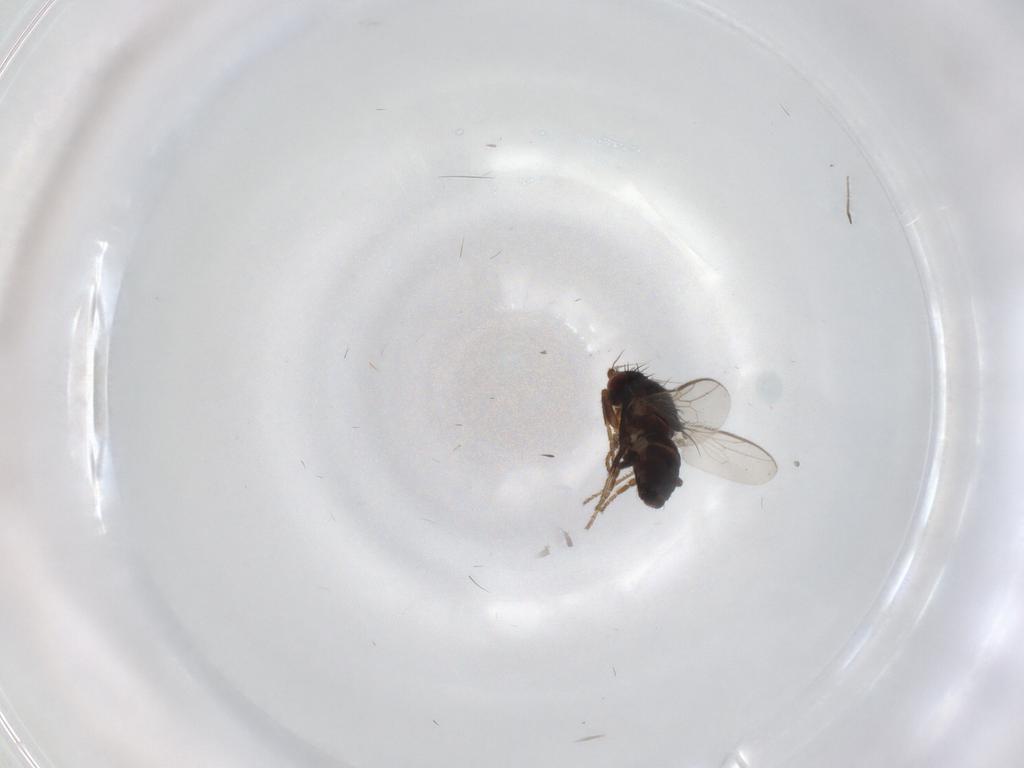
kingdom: Animalia
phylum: Arthropoda
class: Insecta
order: Diptera
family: Sphaeroceridae
